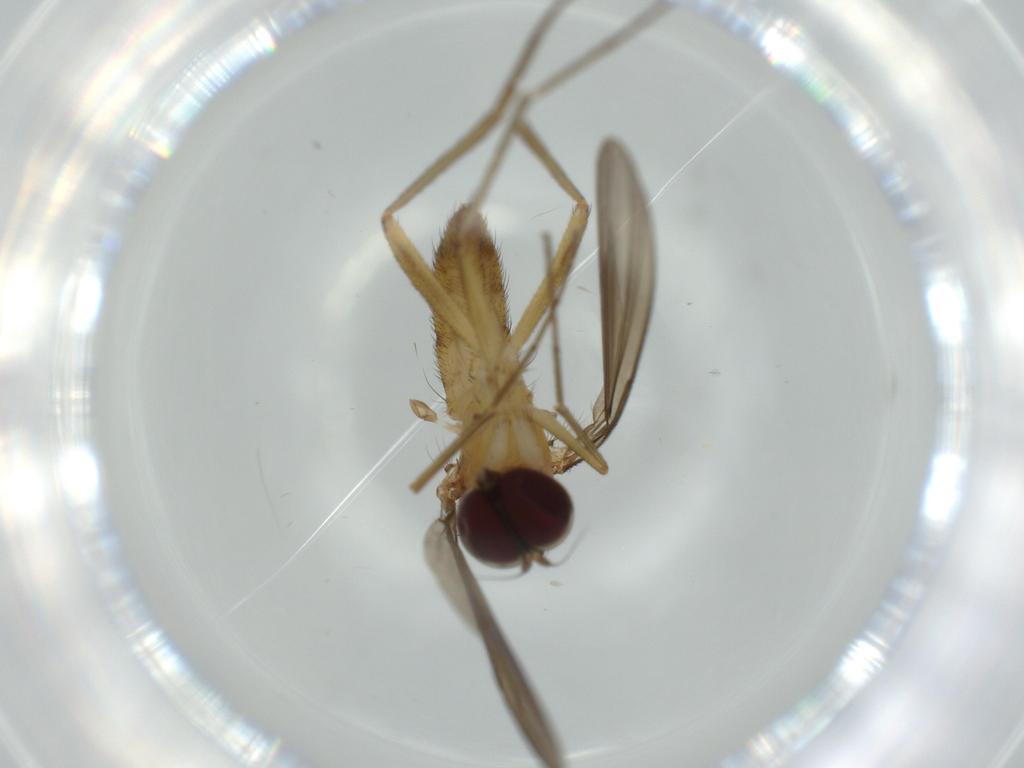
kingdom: Animalia
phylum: Arthropoda
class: Insecta
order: Diptera
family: Dolichopodidae
